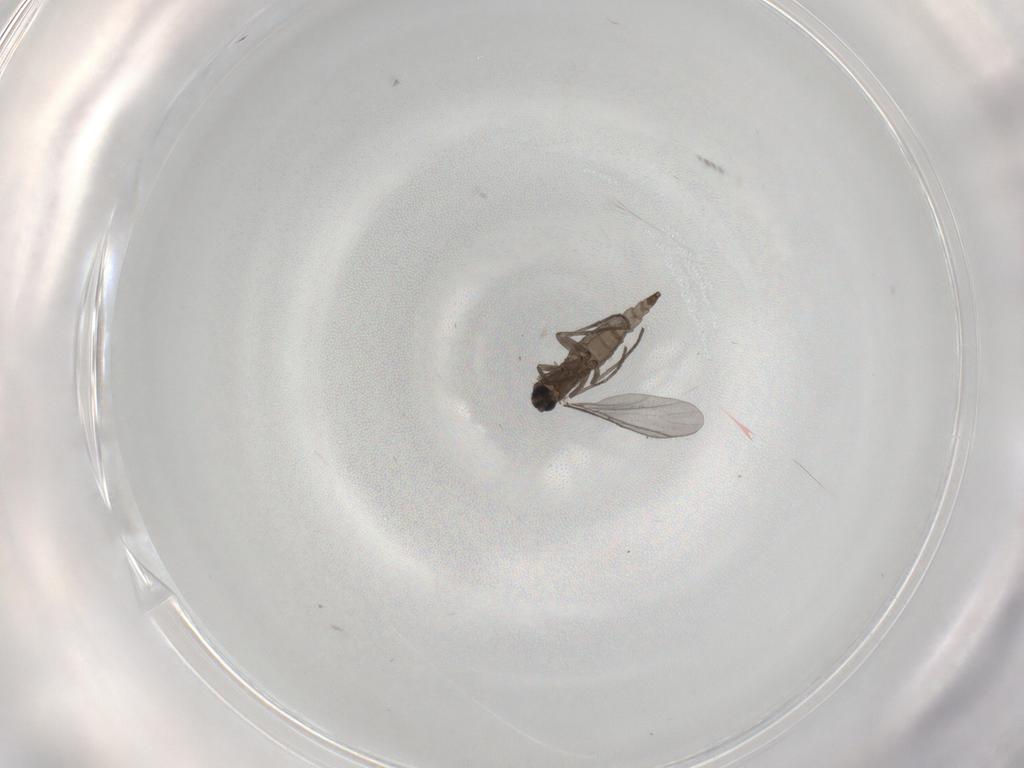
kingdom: Animalia
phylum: Arthropoda
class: Insecta
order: Diptera
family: Sciaridae
